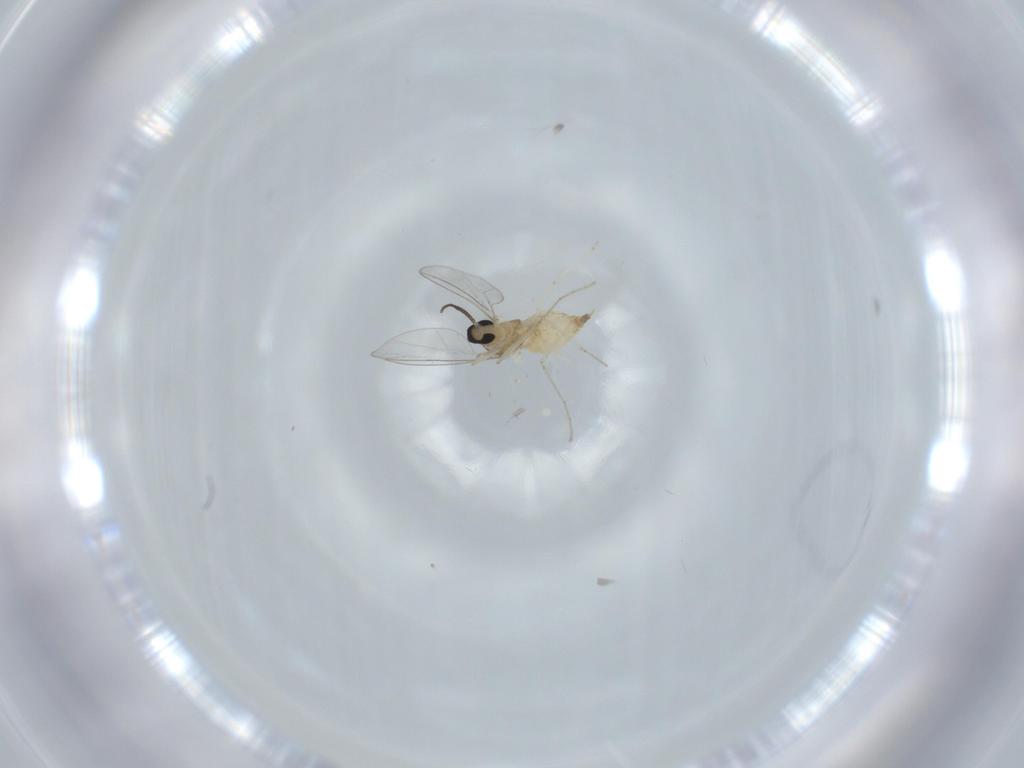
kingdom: Animalia
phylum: Arthropoda
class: Insecta
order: Diptera
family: Cecidomyiidae
